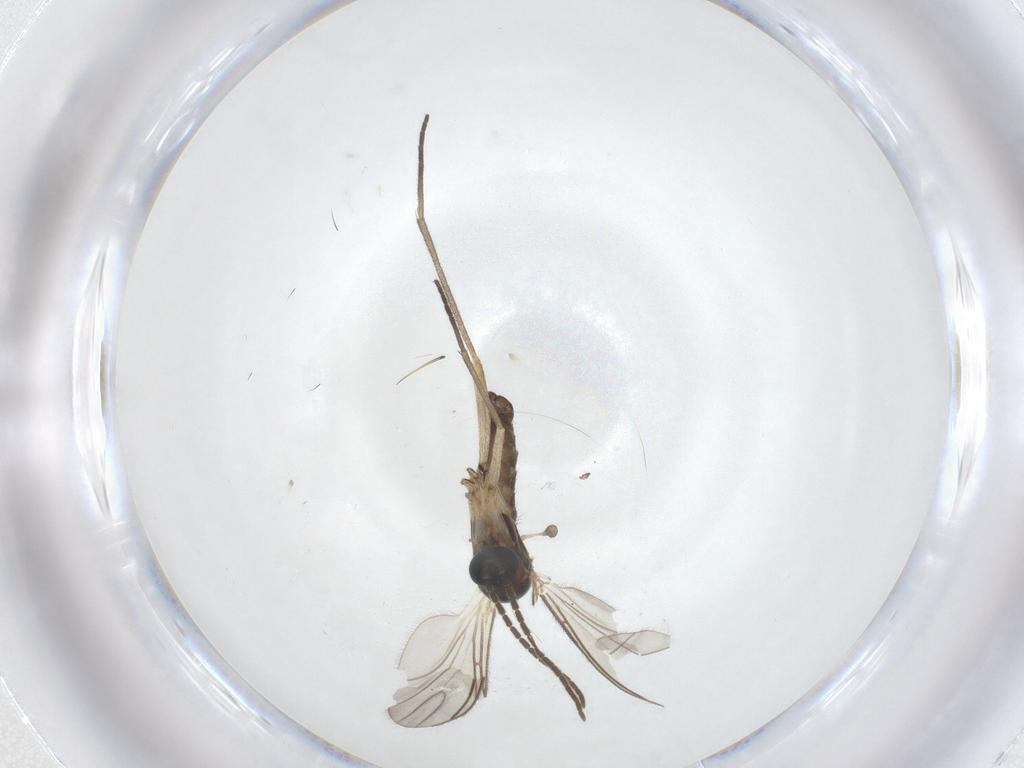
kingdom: Animalia
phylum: Arthropoda
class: Insecta
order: Diptera
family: Sciaridae
